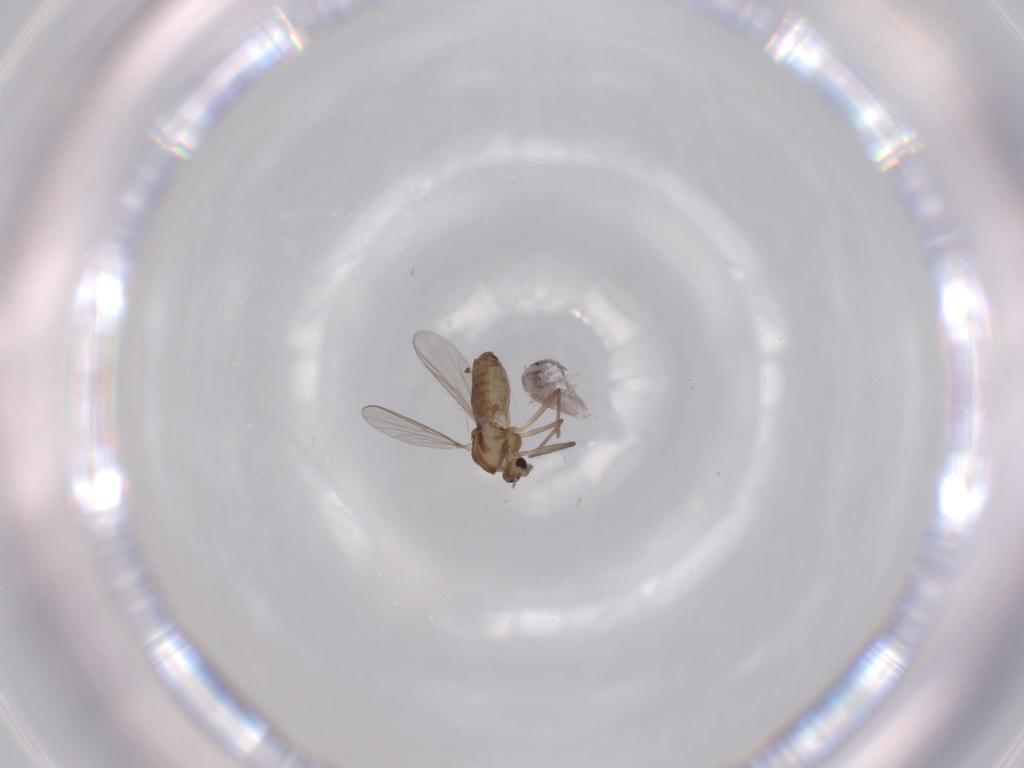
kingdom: Animalia
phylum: Arthropoda
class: Insecta
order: Diptera
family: Chironomidae
